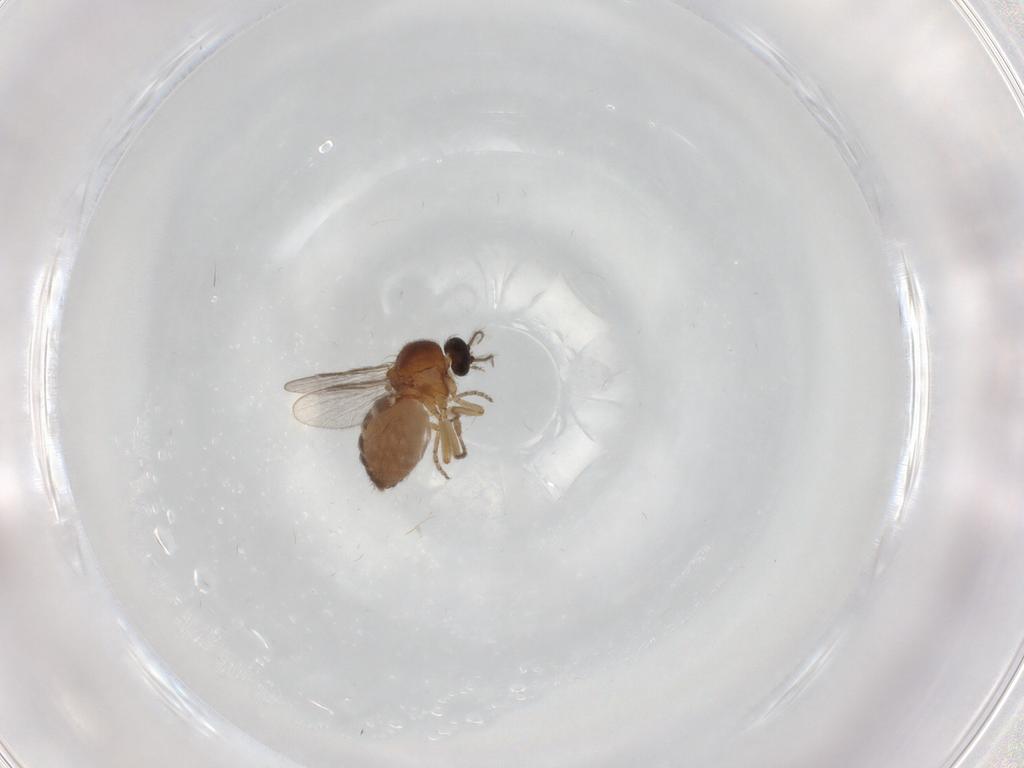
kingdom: Animalia
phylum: Arthropoda
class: Insecta
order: Diptera
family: Ceratopogonidae
